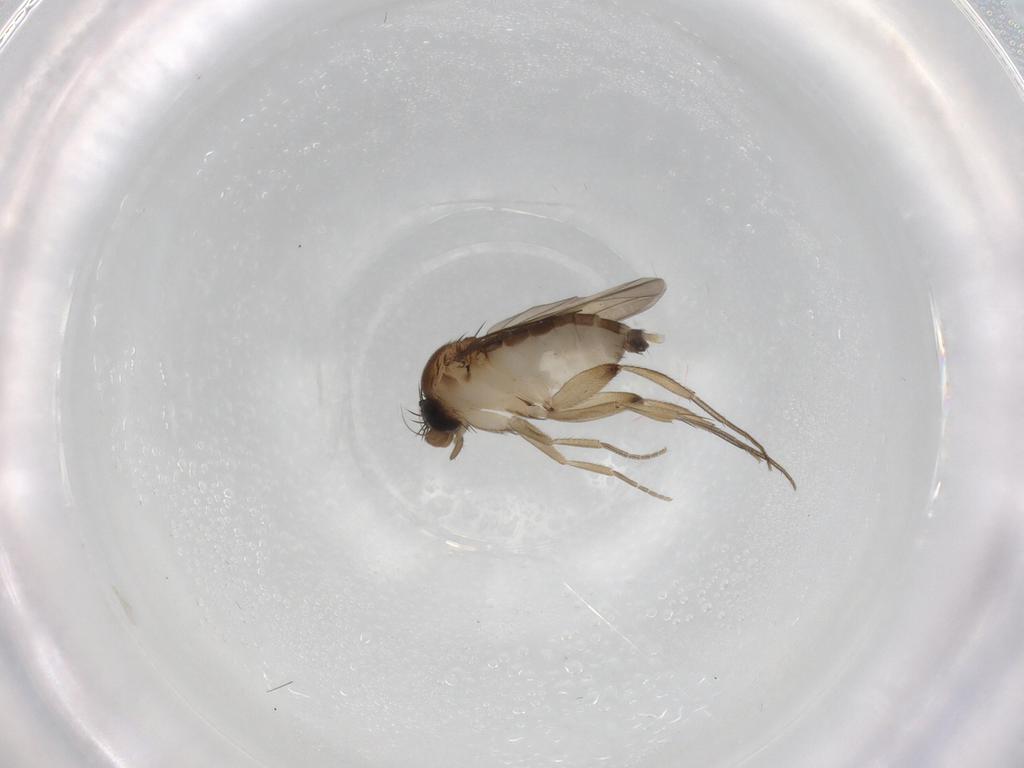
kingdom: Animalia
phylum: Arthropoda
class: Insecta
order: Diptera
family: Phoridae
